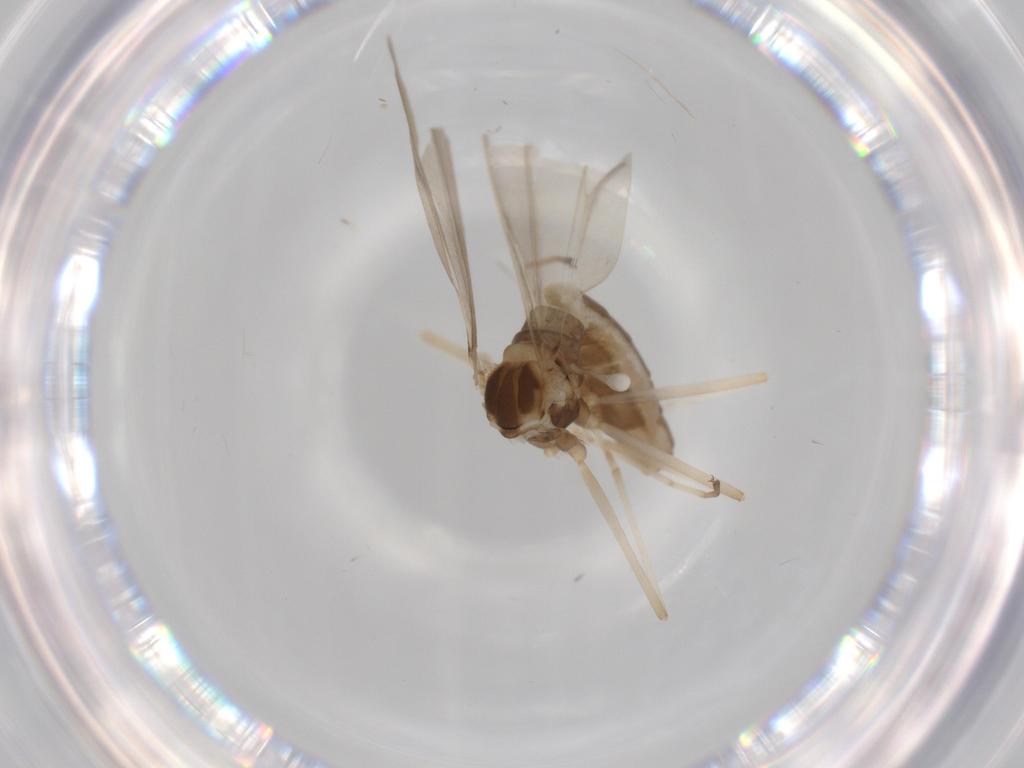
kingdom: Animalia
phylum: Arthropoda
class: Insecta
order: Diptera
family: Cecidomyiidae
